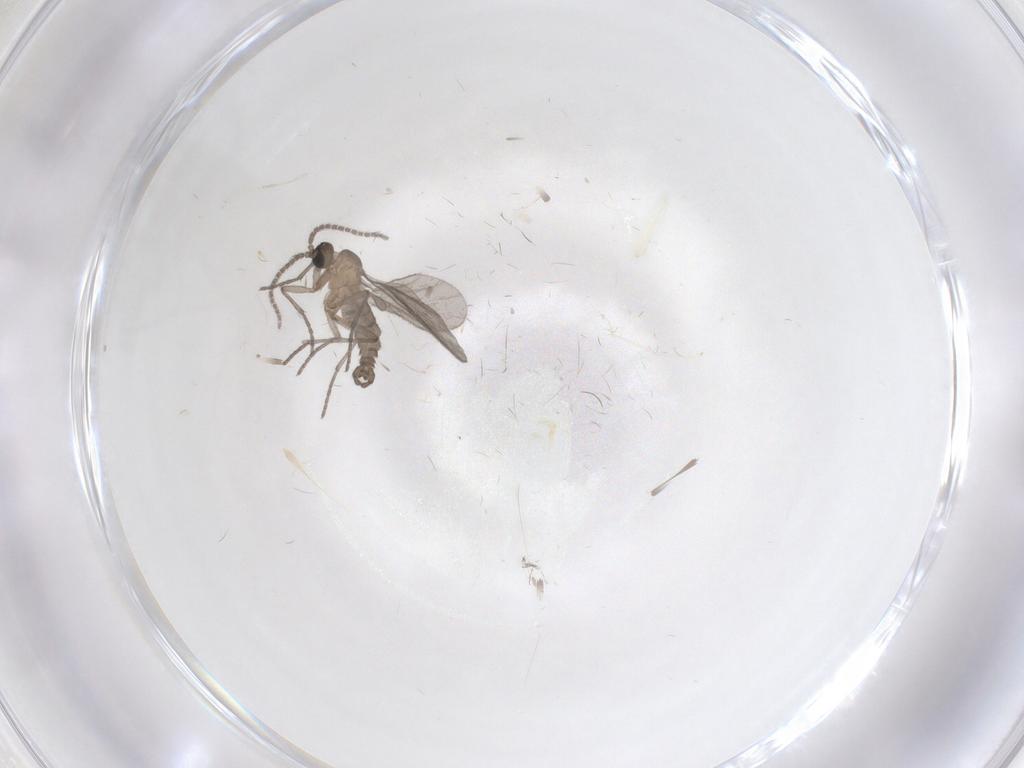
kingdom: Animalia
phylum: Arthropoda
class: Insecta
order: Diptera
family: Sciaridae
